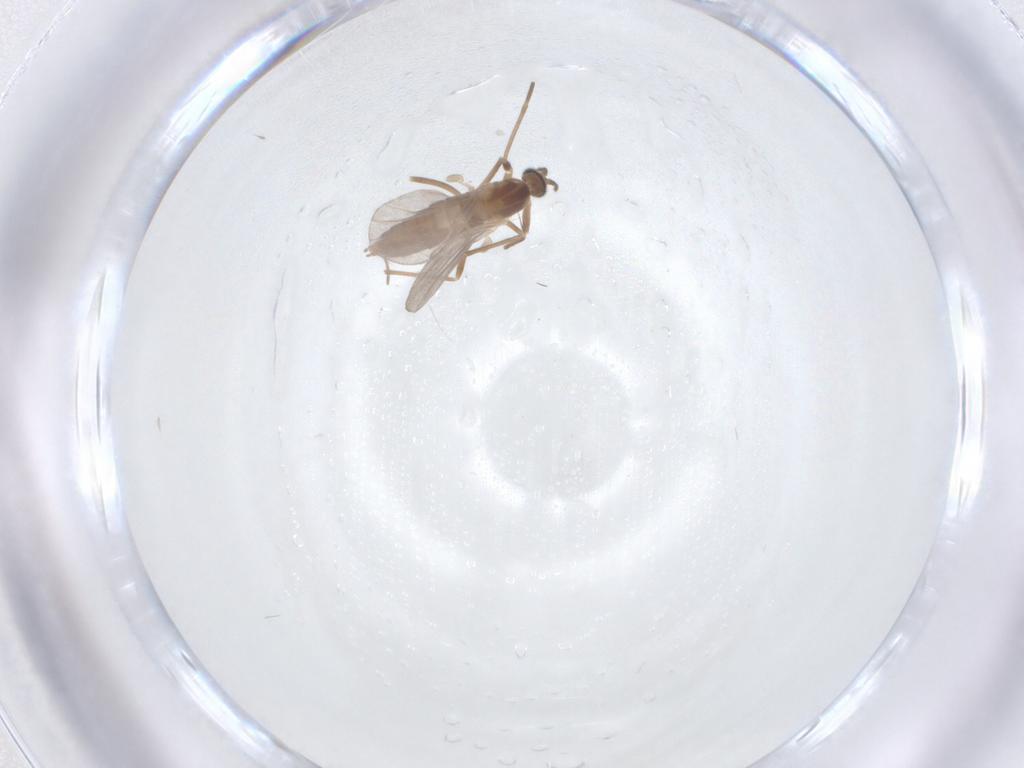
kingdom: Animalia
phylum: Arthropoda
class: Insecta
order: Diptera
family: Cecidomyiidae
